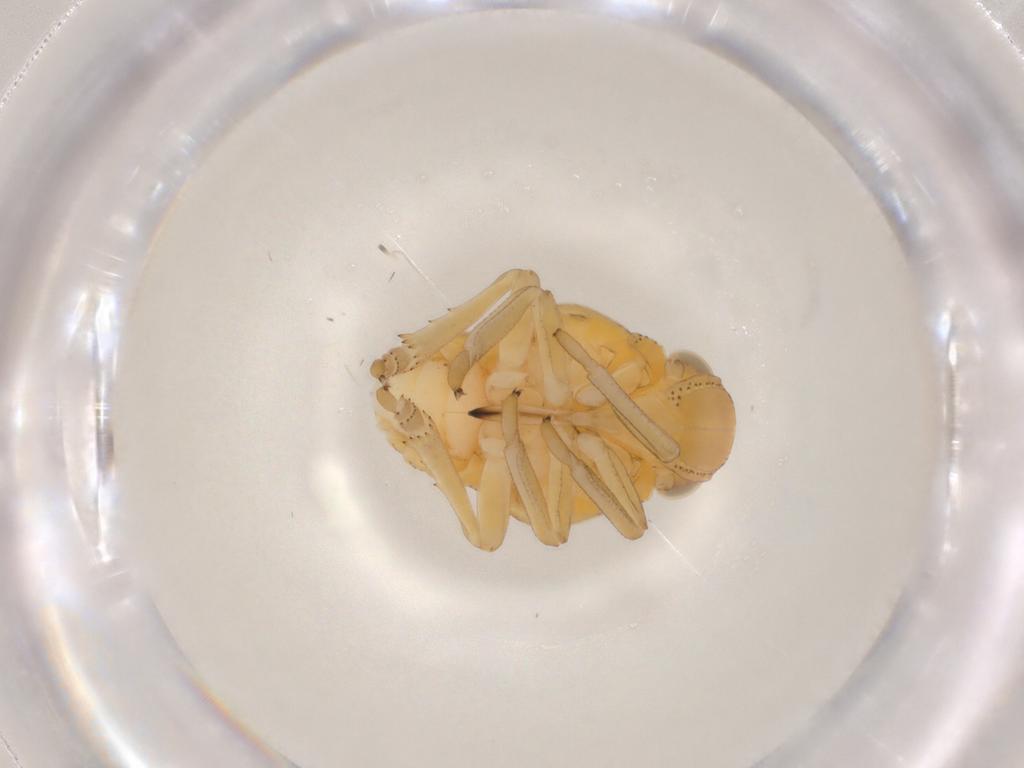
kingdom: Animalia
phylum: Arthropoda
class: Insecta
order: Hemiptera
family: Tropiduchidae
